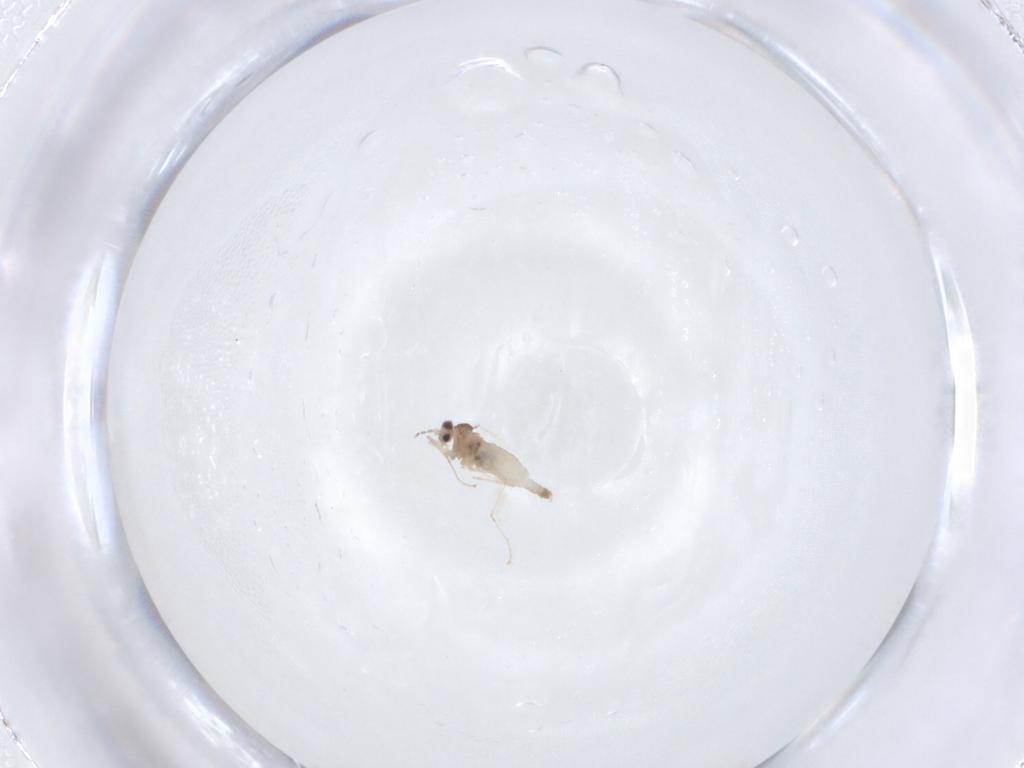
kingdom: Animalia
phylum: Arthropoda
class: Insecta
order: Diptera
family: Cecidomyiidae
